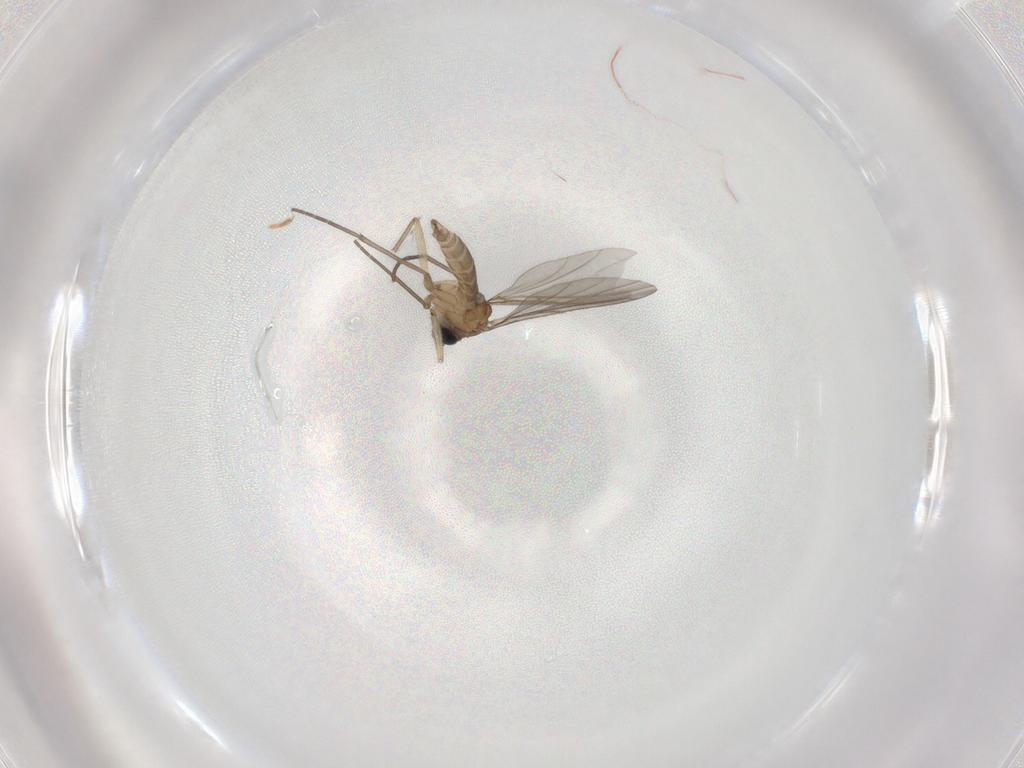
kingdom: Animalia
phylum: Arthropoda
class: Insecta
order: Diptera
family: Sciaridae
